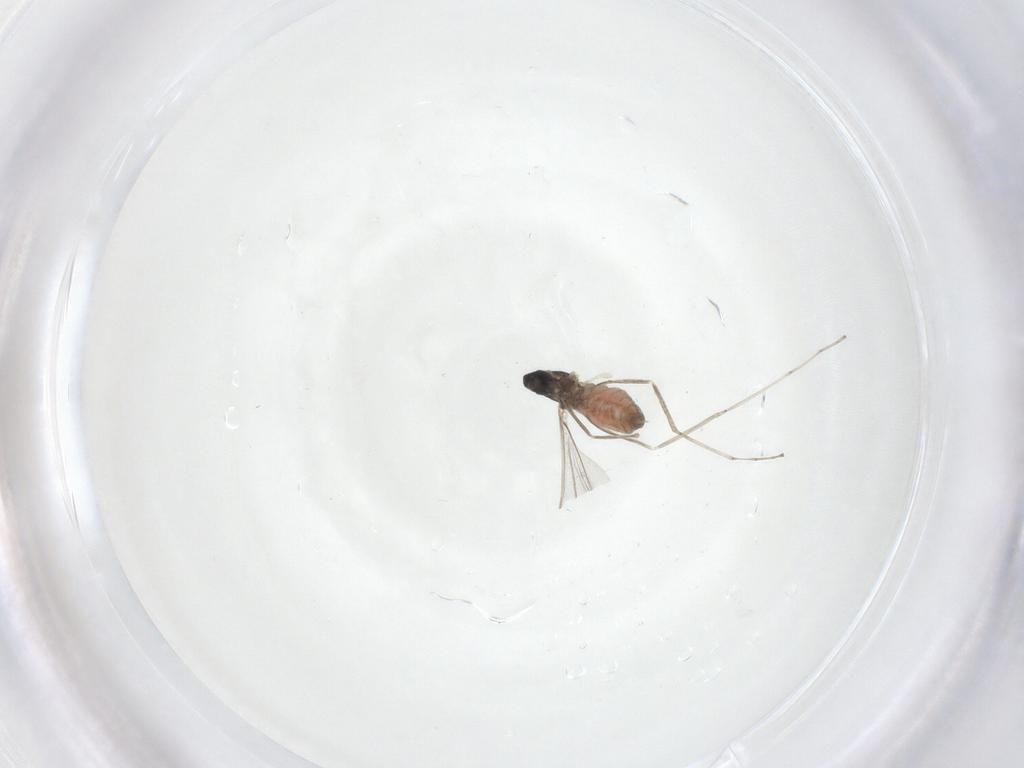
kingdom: Animalia
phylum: Arthropoda
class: Insecta
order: Diptera
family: Cecidomyiidae
